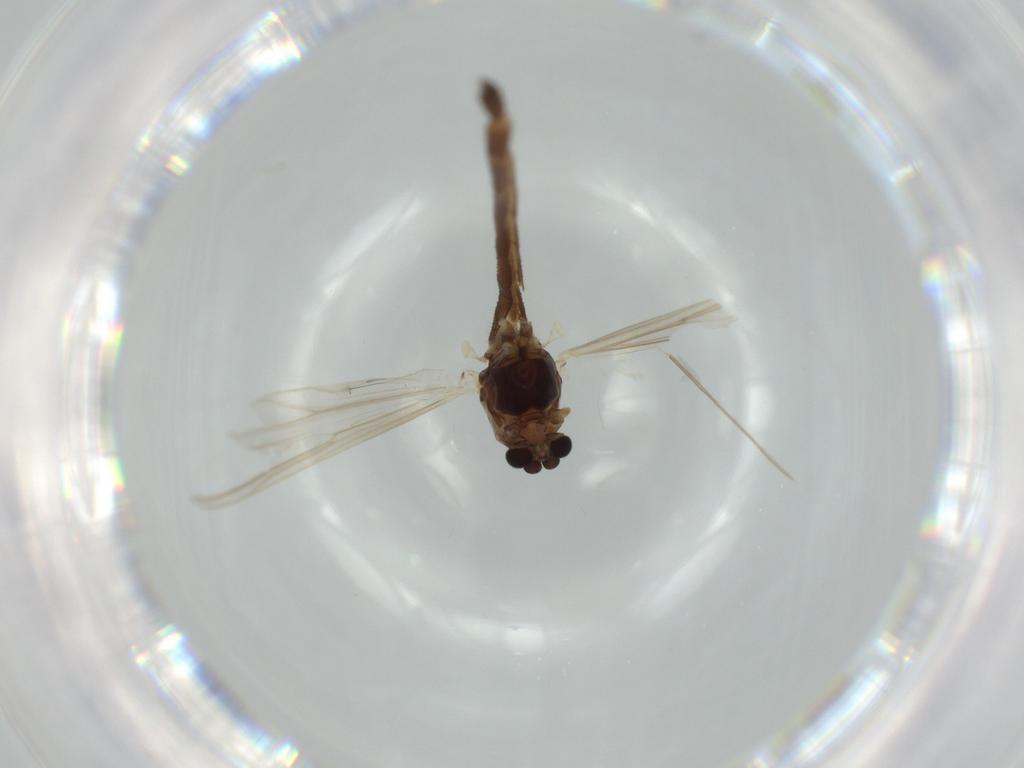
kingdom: Animalia
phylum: Arthropoda
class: Insecta
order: Diptera
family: Chironomidae
